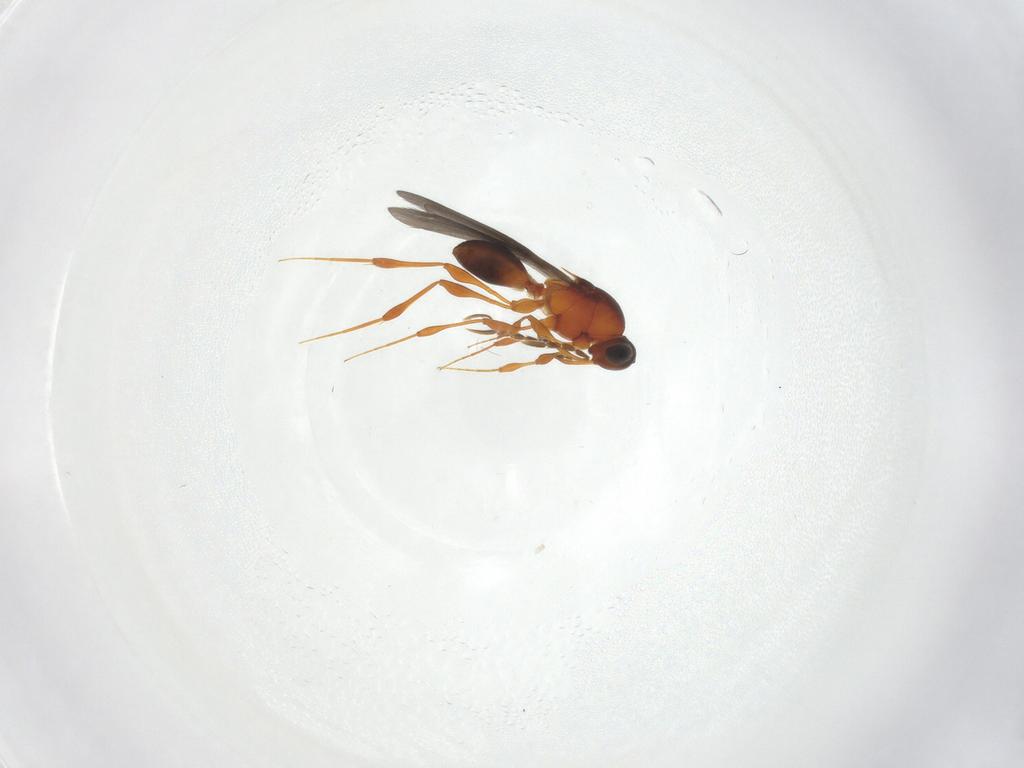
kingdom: Animalia
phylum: Arthropoda
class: Insecta
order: Hymenoptera
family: Platygastridae
